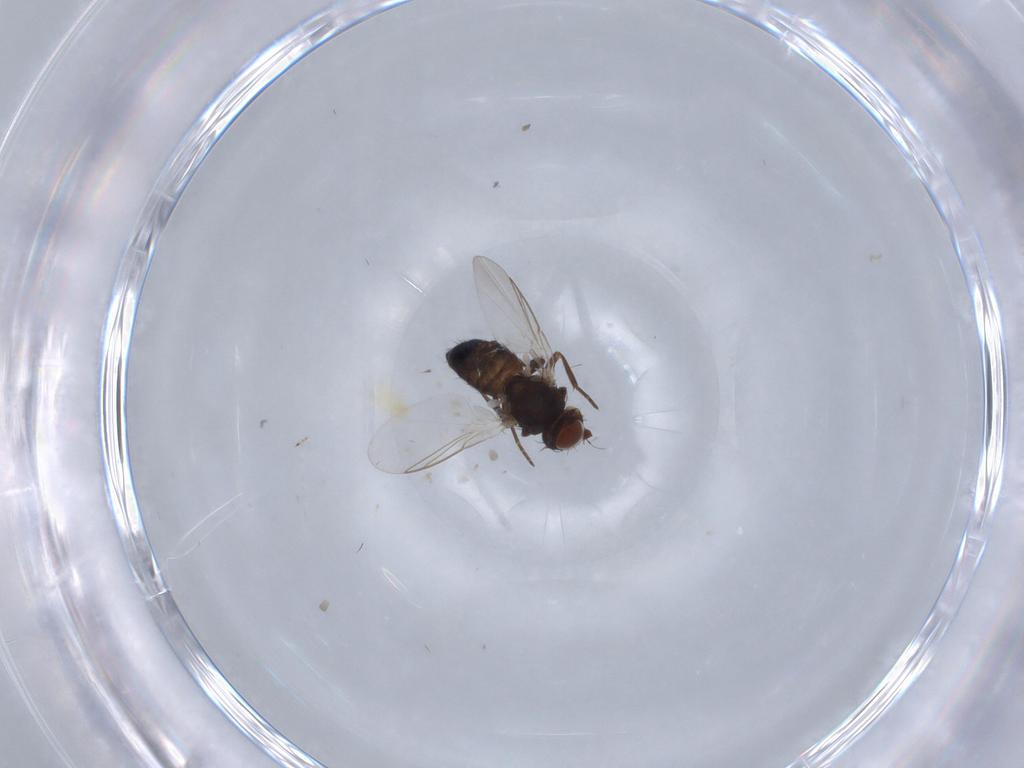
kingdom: Animalia
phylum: Arthropoda
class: Insecta
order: Diptera
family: Agromyzidae
